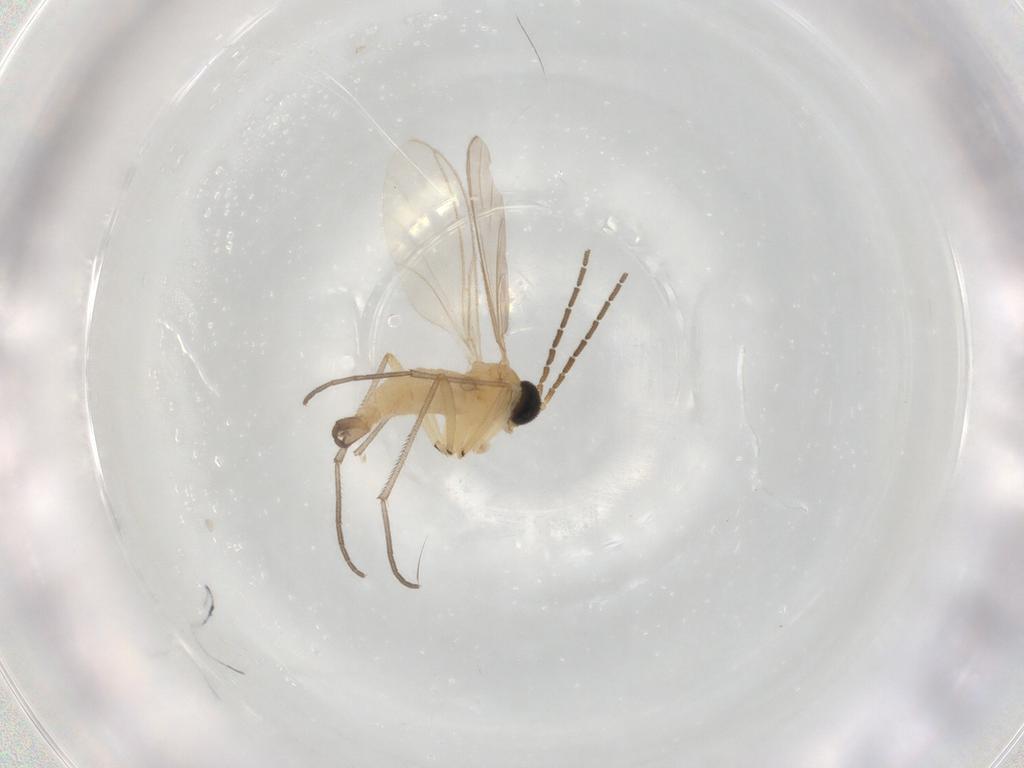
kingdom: Animalia
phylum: Arthropoda
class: Insecta
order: Diptera
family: Sciaridae
